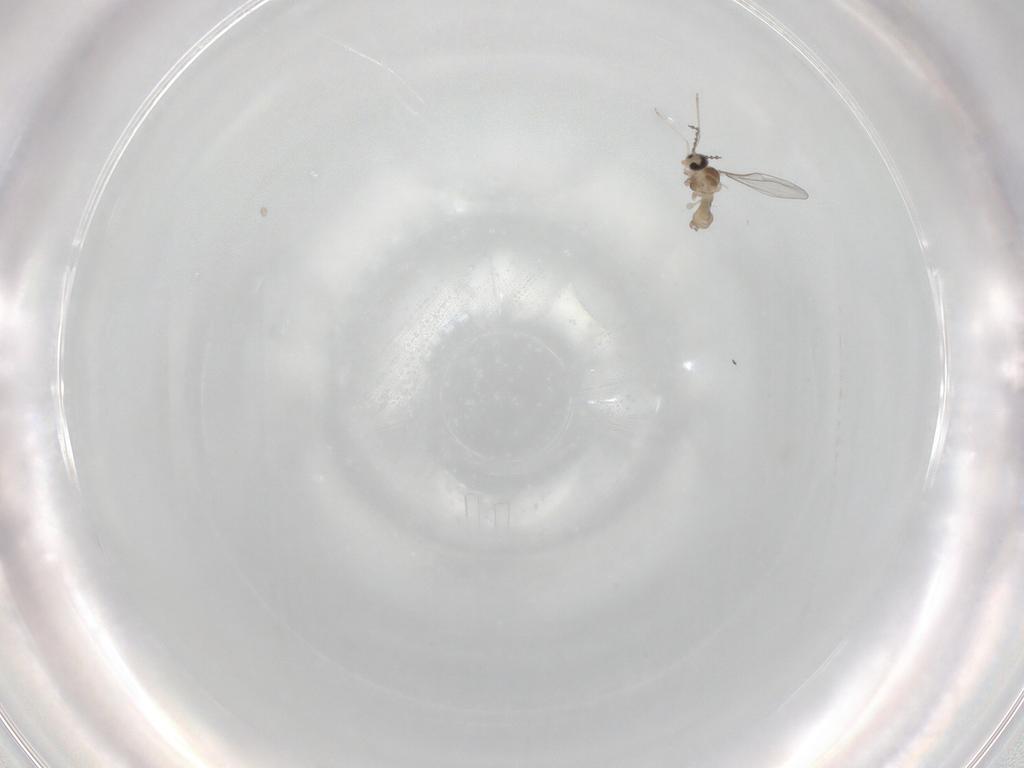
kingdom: Animalia
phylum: Arthropoda
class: Insecta
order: Diptera
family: Cecidomyiidae
